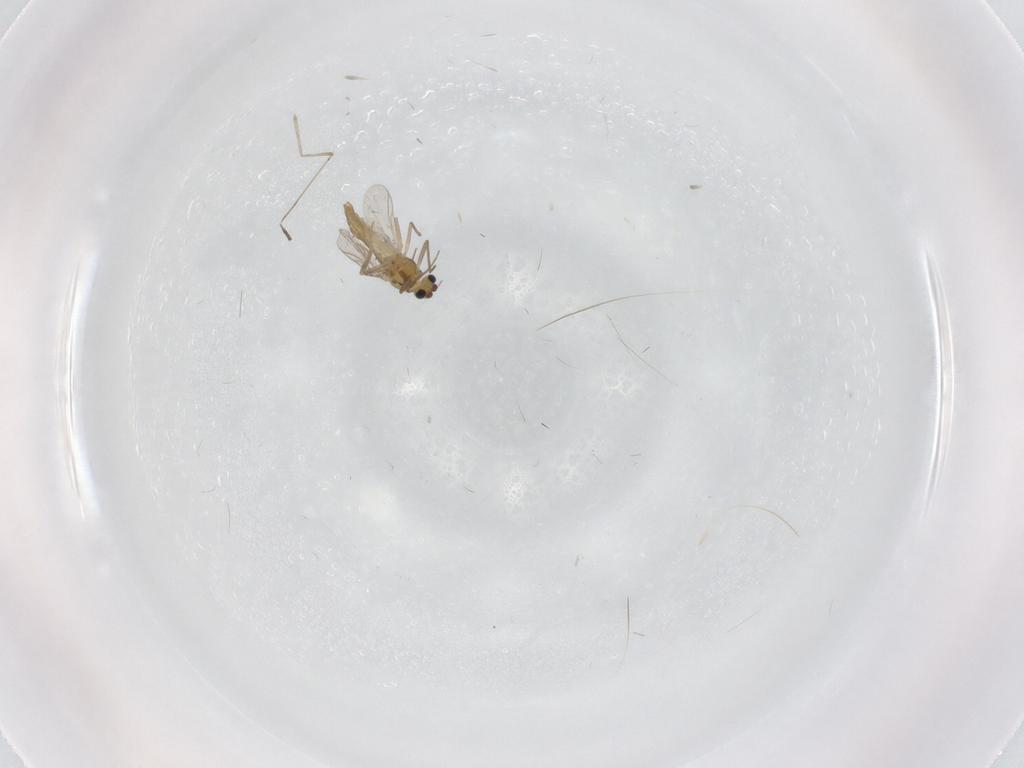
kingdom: Animalia
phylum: Arthropoda
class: Insecta
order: Diptera
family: Chironomidae
